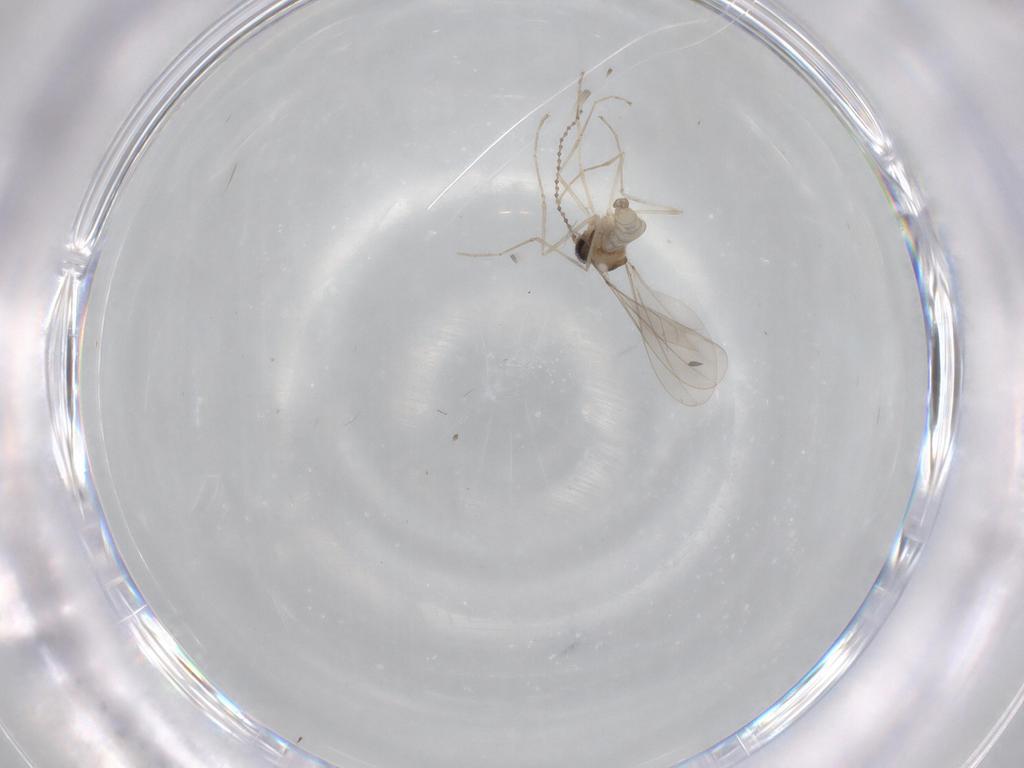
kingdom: Animalia
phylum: Arthropoda
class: Insecta
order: Diptera
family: Cecidomyiidae
